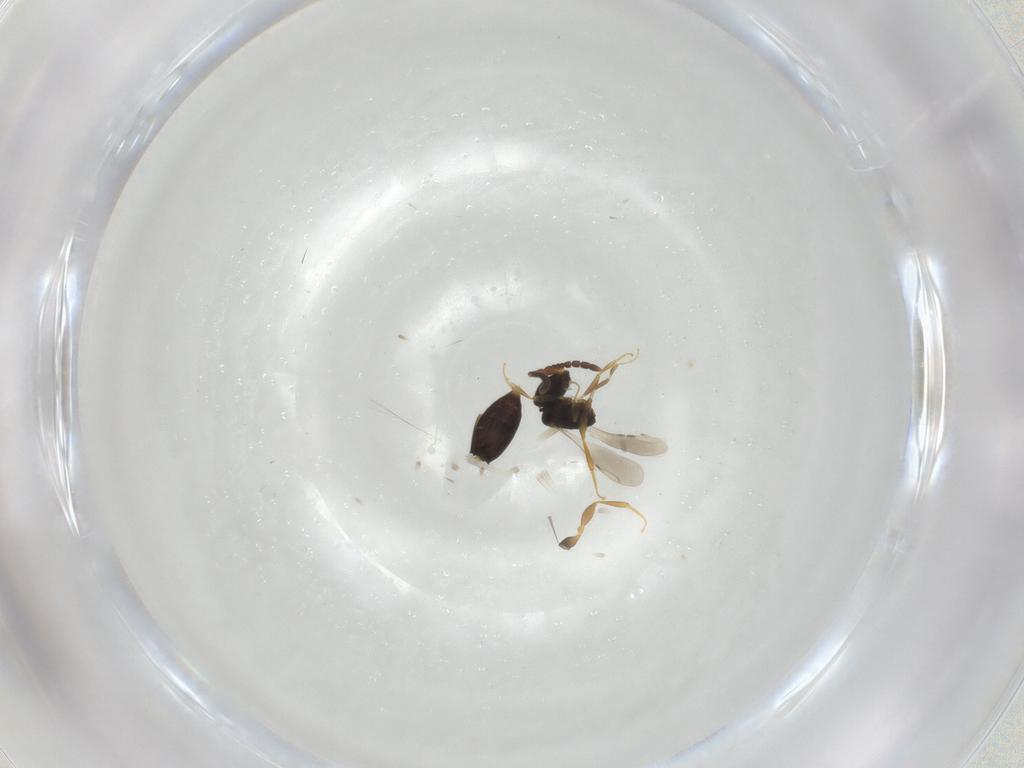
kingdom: Animalia
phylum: Arthropoda
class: Insecta
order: Hymenoptera
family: Ceraphronidae
